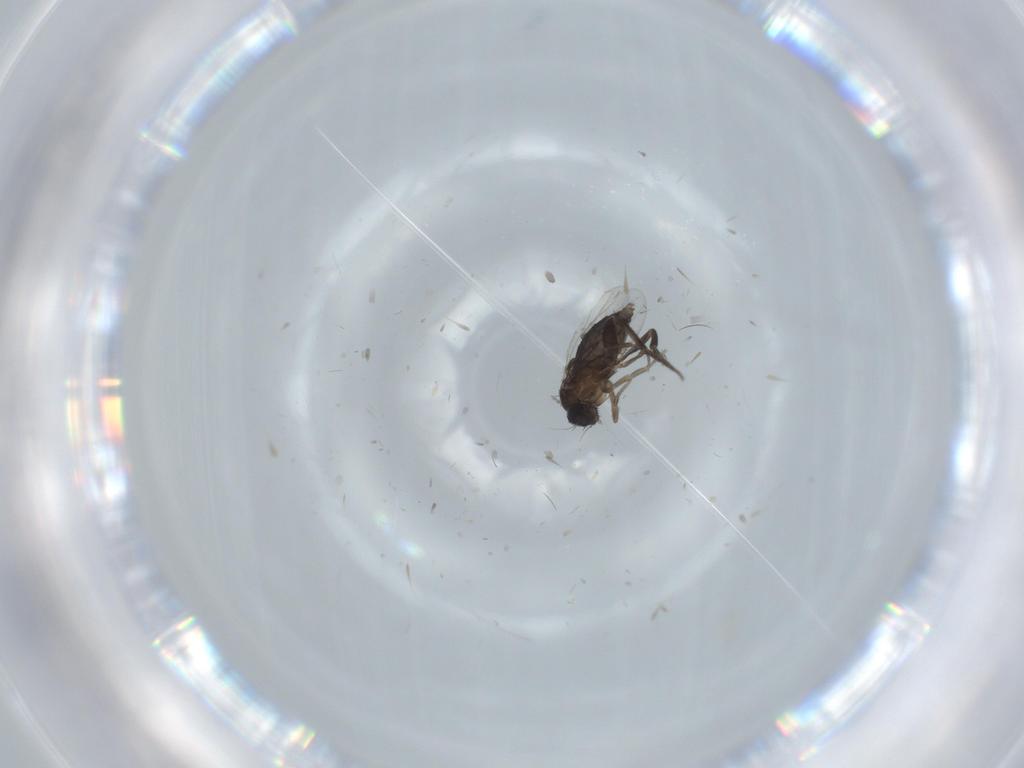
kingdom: Animalia
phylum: Arthropoda
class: Insecta
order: Diptera
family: Phoridae
